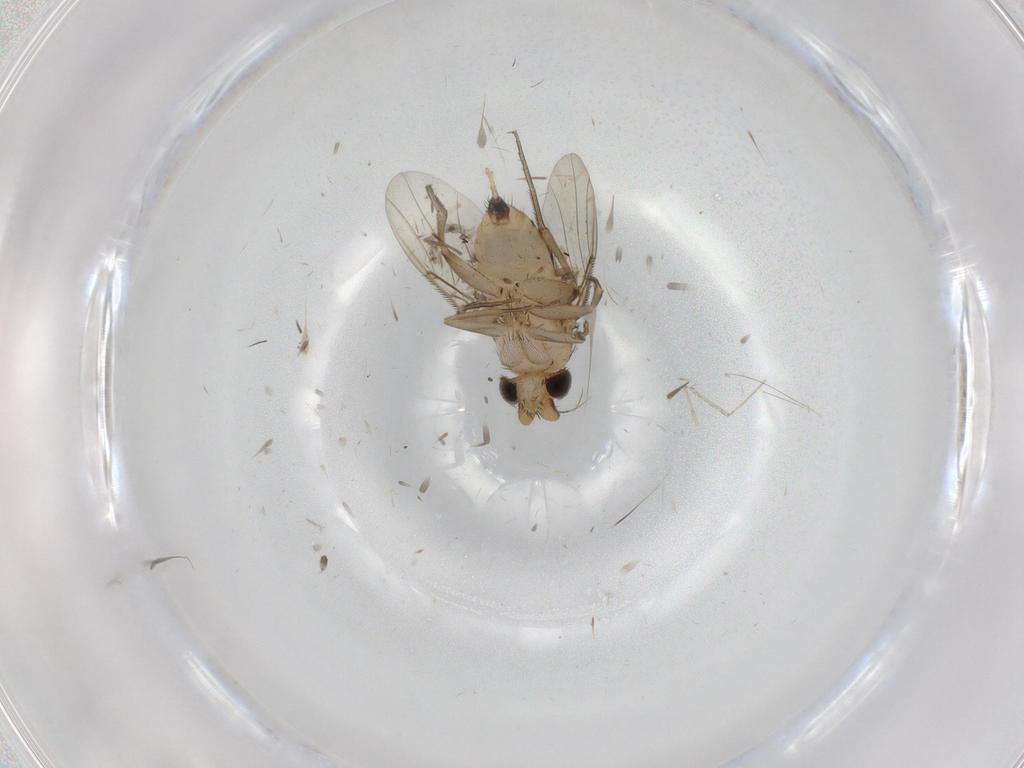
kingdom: Animalia
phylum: Arthropoda
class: Insecta
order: Diptera
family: Phoridae
